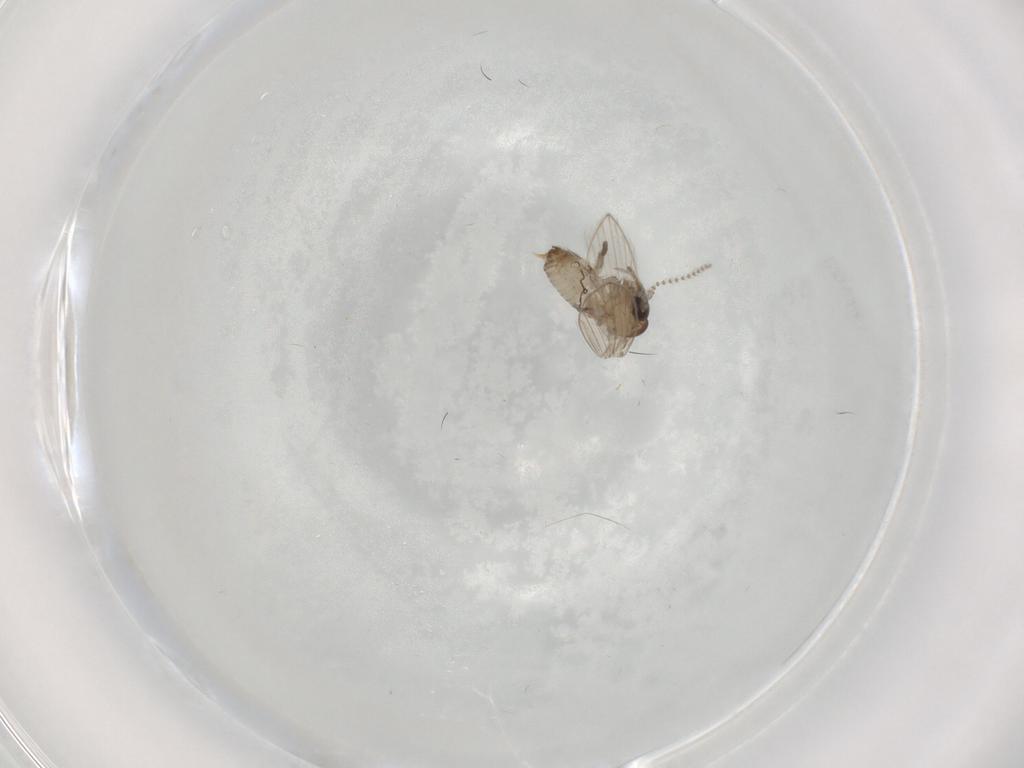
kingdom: Animalia
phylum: Arthropoda
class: Insecta
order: Diptera
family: Psychodidae
